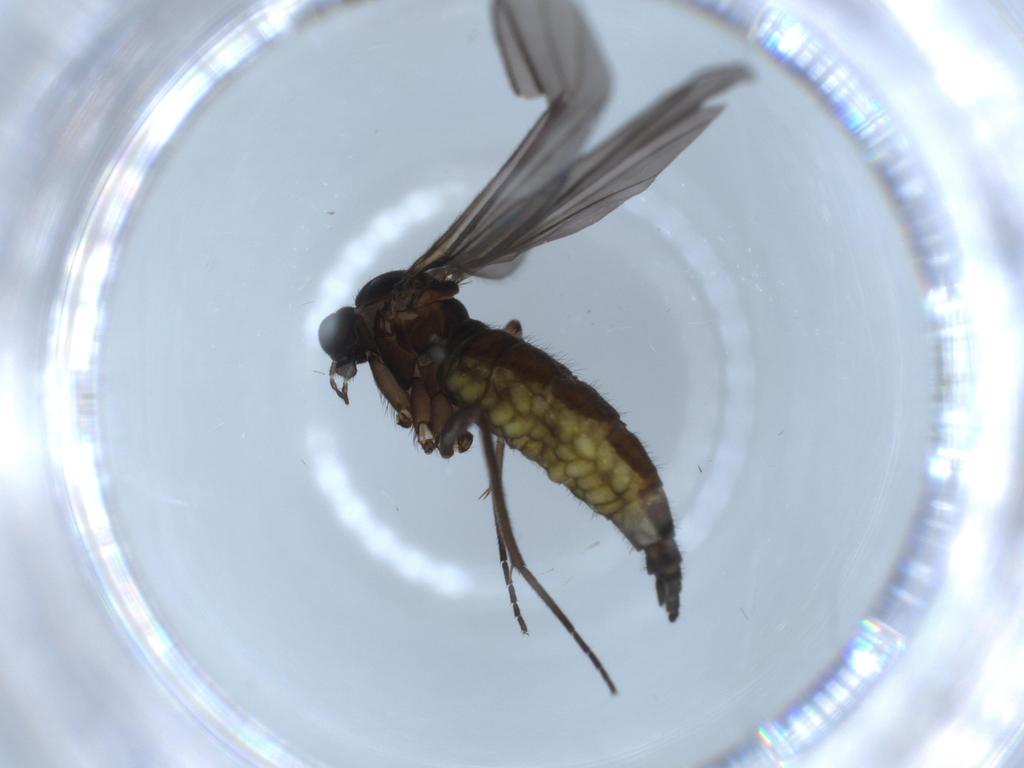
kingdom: Animalia
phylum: Arthropoda
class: Insecta
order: Diptera
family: Sciaridae
